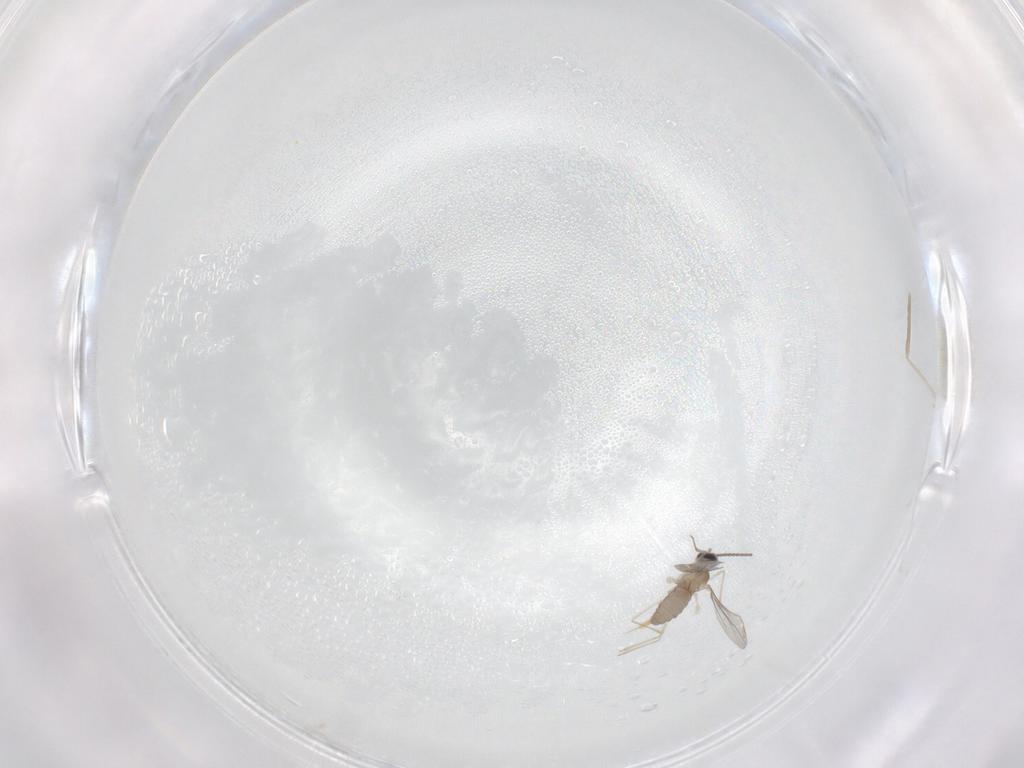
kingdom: Animalia
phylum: Arthropoda
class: Insecta
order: Diptera
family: Cecidomyiidae
